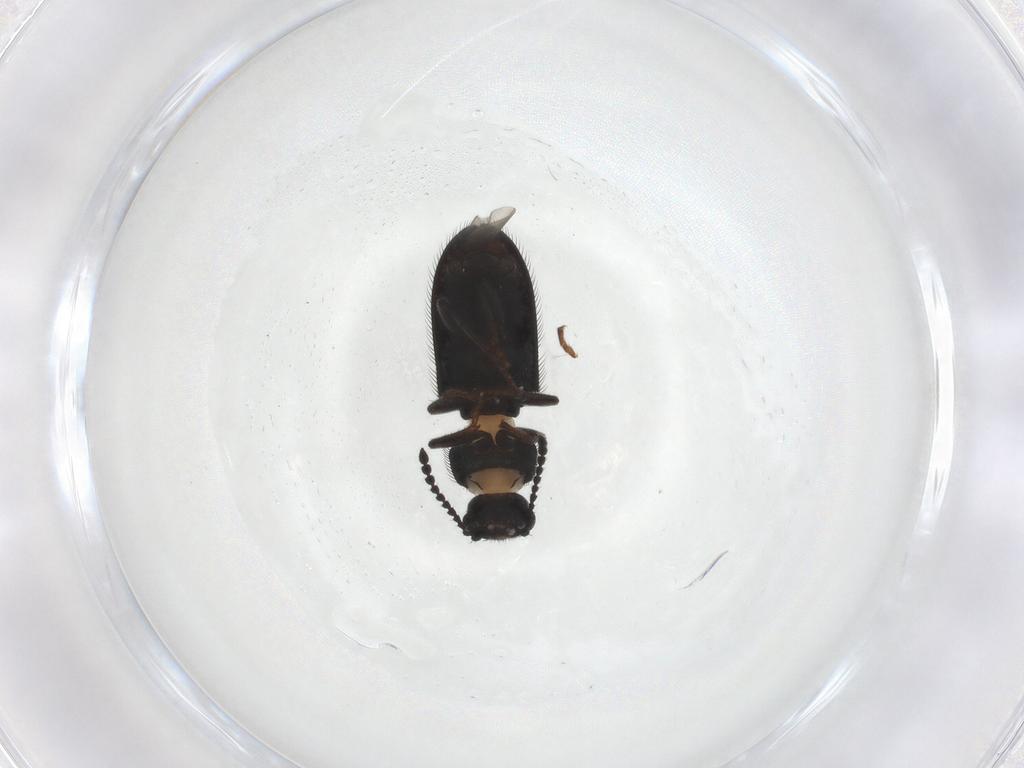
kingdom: Animalia
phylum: Arthropoda
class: Insecta
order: Coleoptera
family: Melyridae
